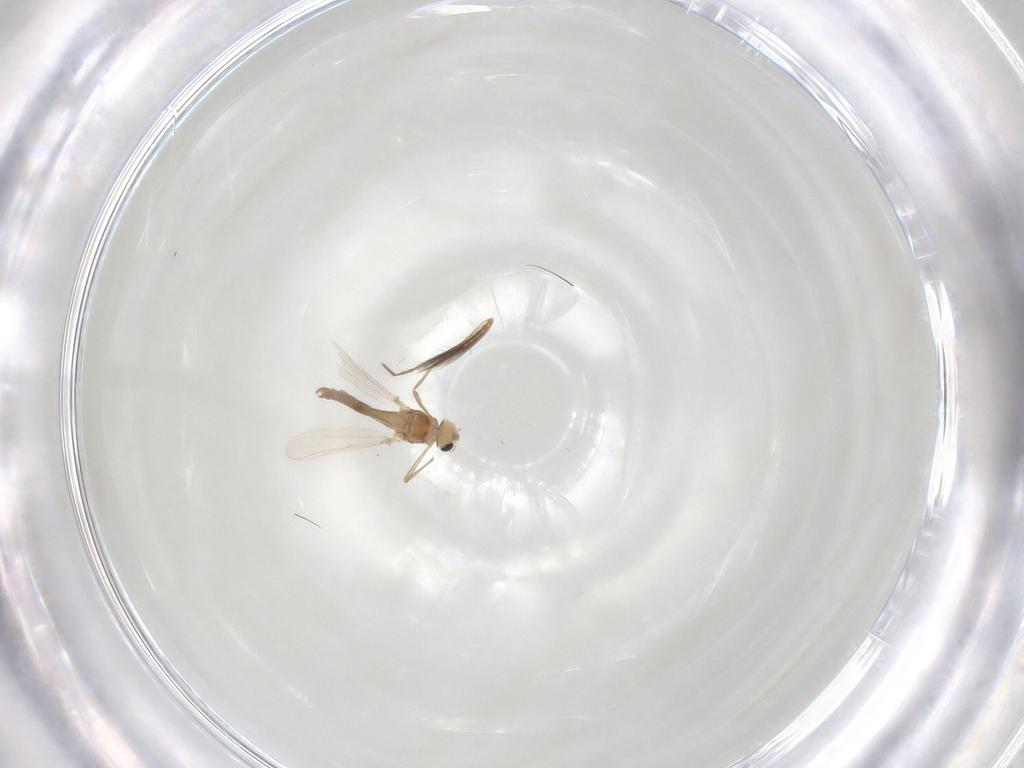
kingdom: Animalia
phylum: Arthropoda
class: Insecta
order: Diptera
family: Chironomidae
